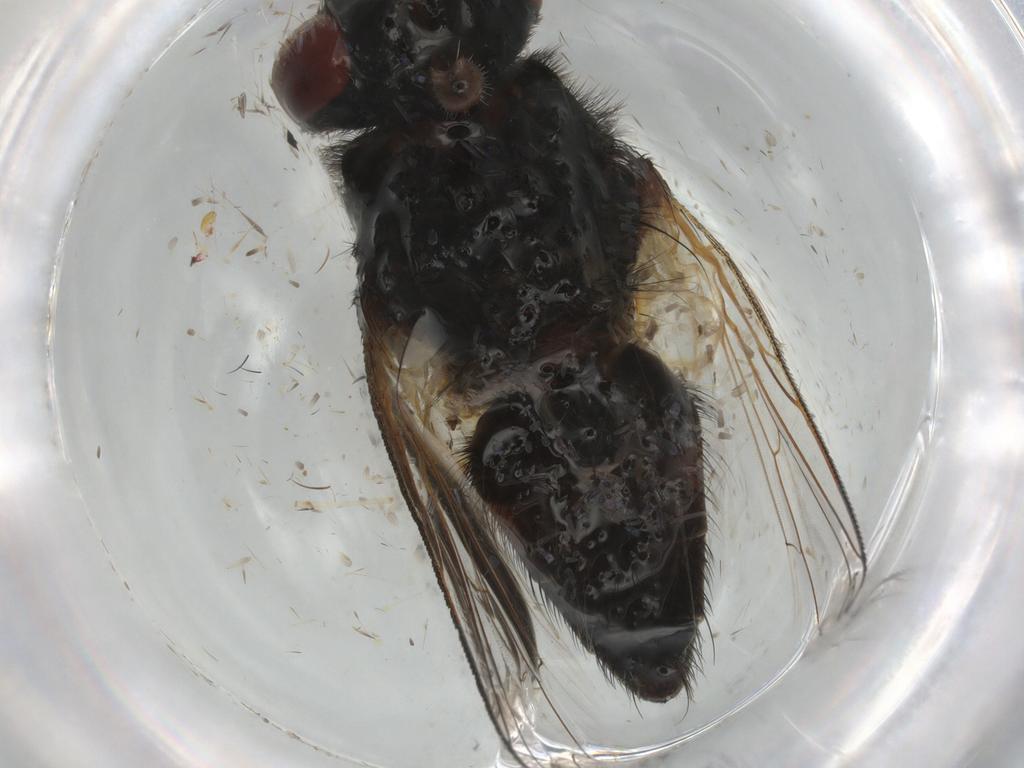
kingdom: Animalia
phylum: Arthropoda
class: Insecta
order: Diptera
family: Sarcophagidae
